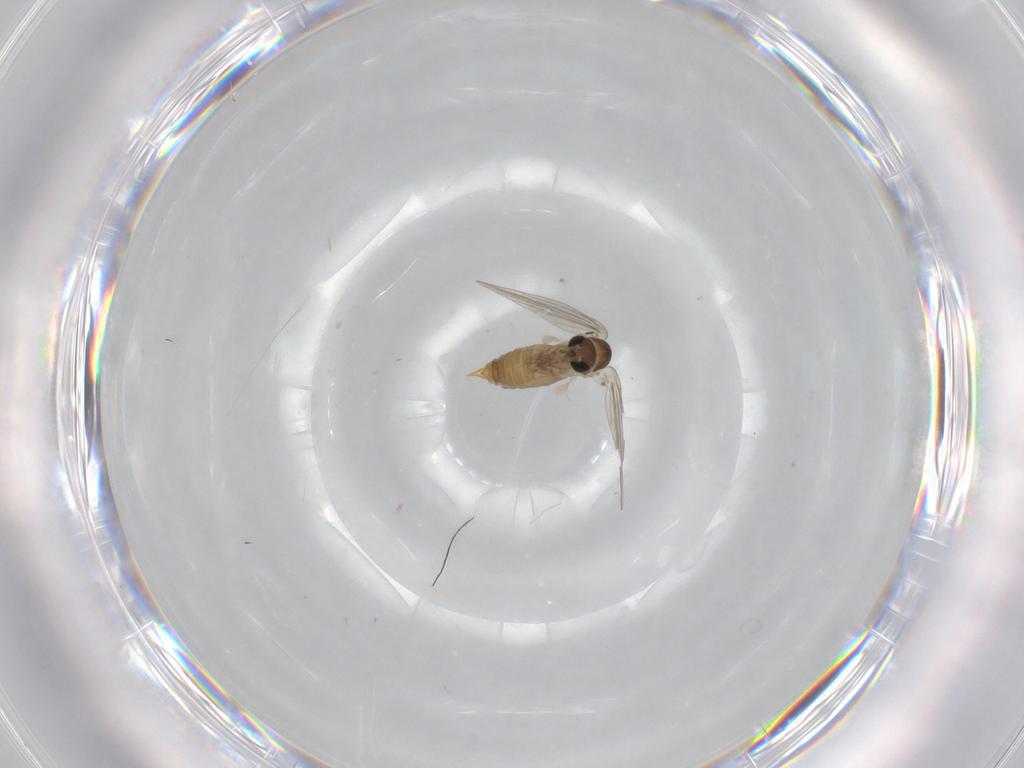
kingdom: Animalia
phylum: Arthropoda
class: Insecta
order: Diptera
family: Psychodidae
